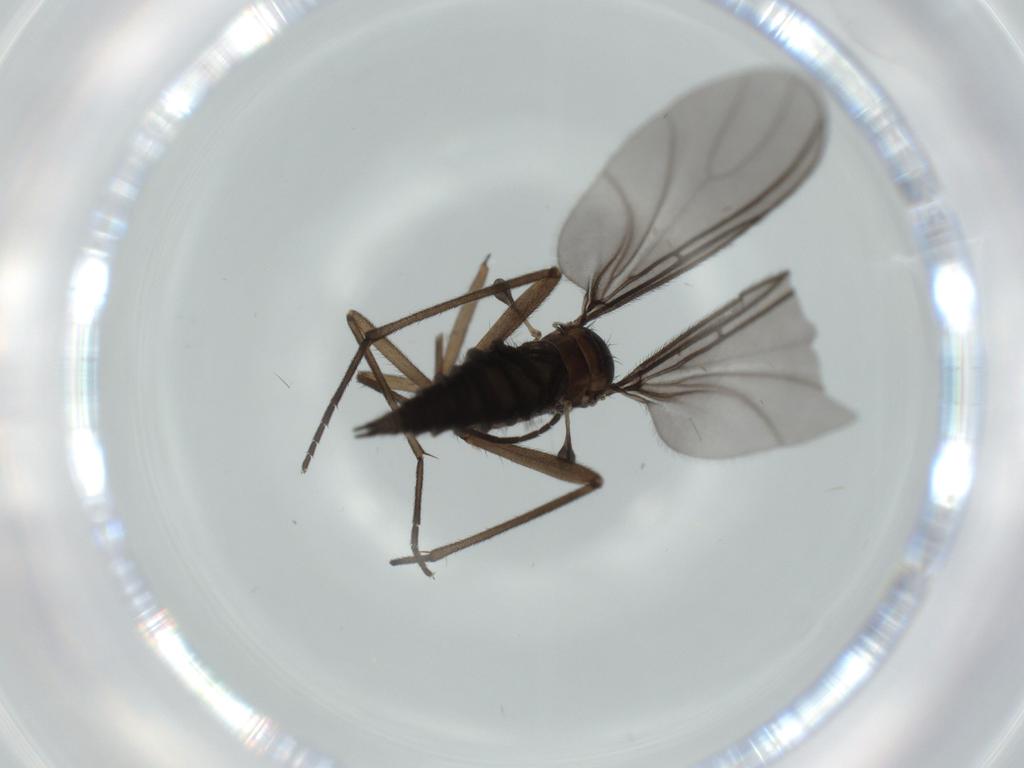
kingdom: Animalia
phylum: Arthropoda
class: Insecta
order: Diptera
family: Sciaridae
